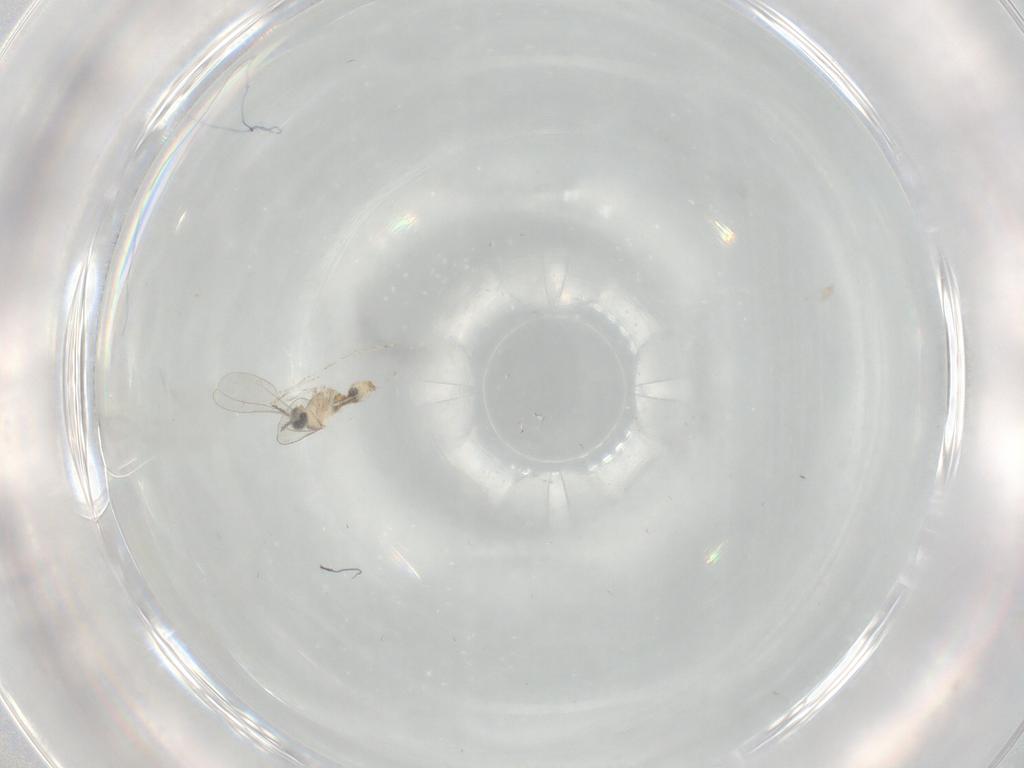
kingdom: Animalia
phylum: Arthropoda
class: Insecta
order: Diptera
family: Cecidomyiidae
